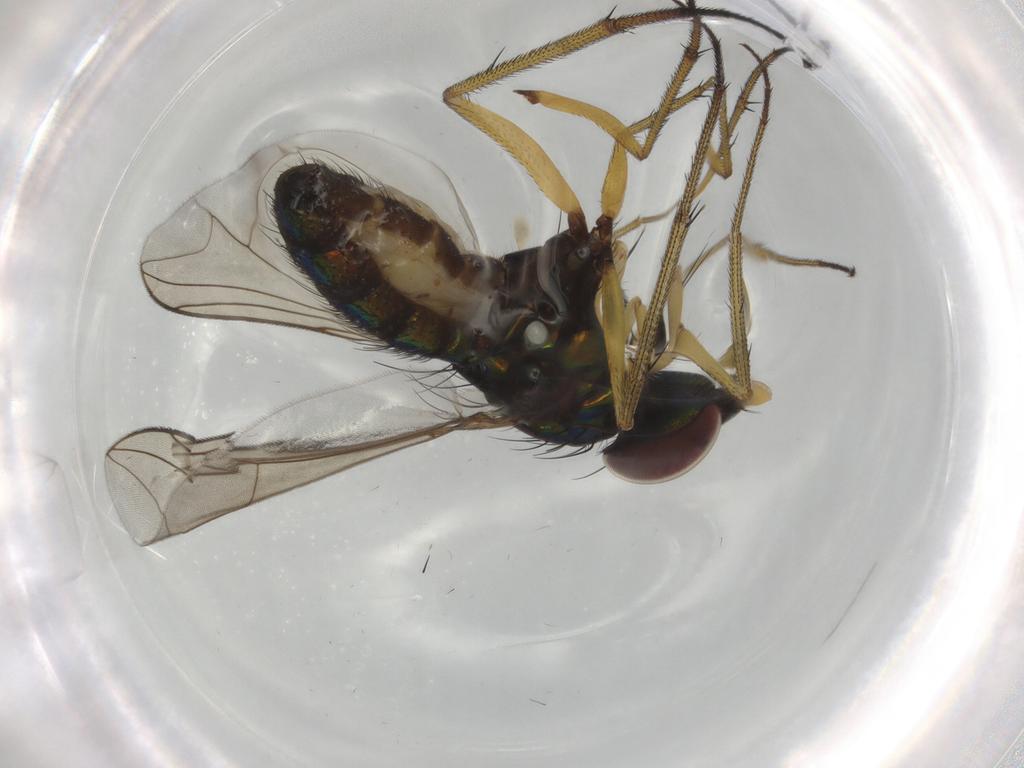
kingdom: Animalia
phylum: Arthropoda
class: Insecta
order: Diptera
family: Dolichopodidae
